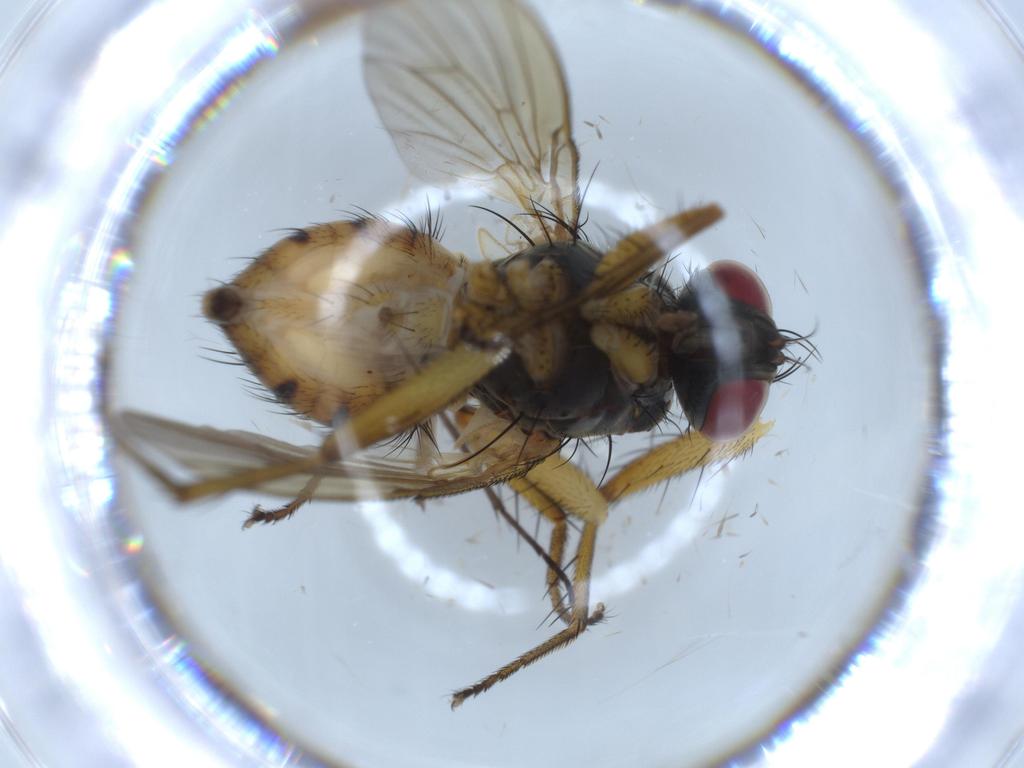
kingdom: Animalia
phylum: Arthropoda
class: Insecta
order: Diptera
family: Muscidae
